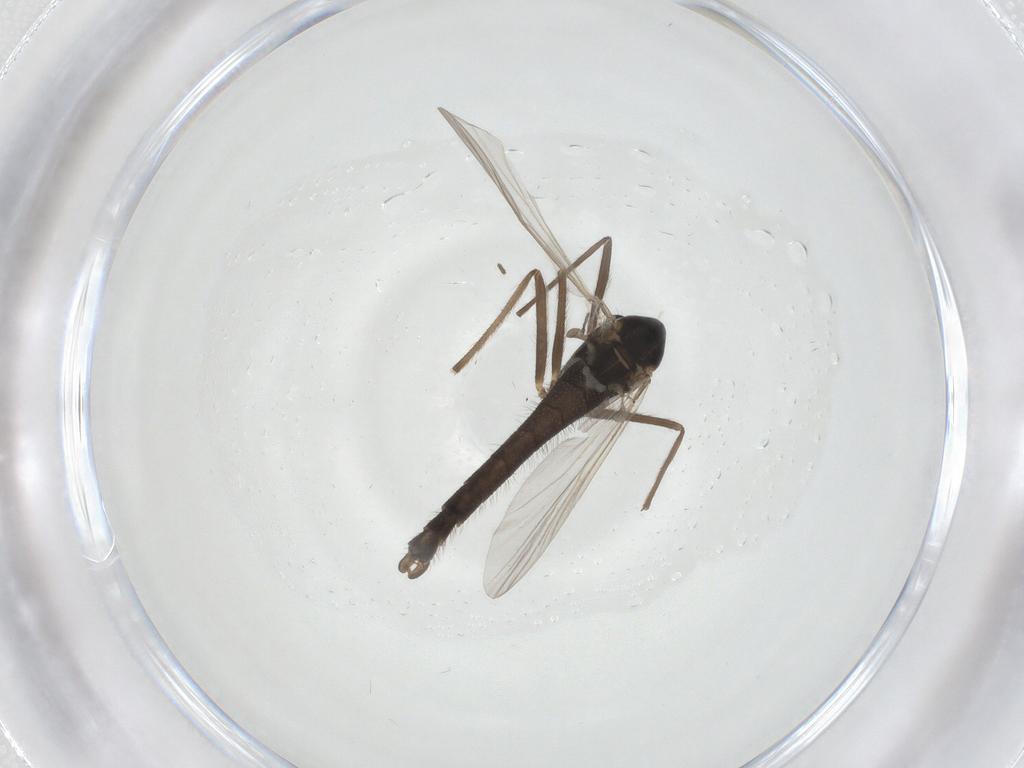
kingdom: Animalia
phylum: Arthropoda
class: Insecta
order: Diptera
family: Chironomidae
